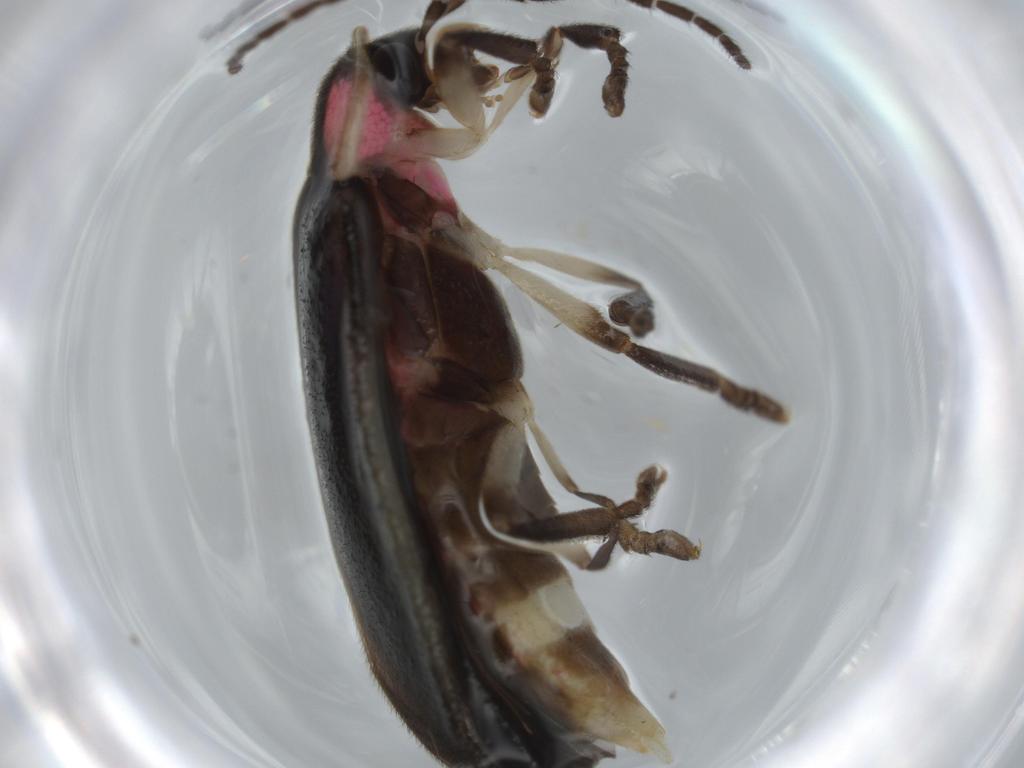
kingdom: Animalia
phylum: Arthropoda
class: Insecta
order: Coleoptera
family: Lampyridae
